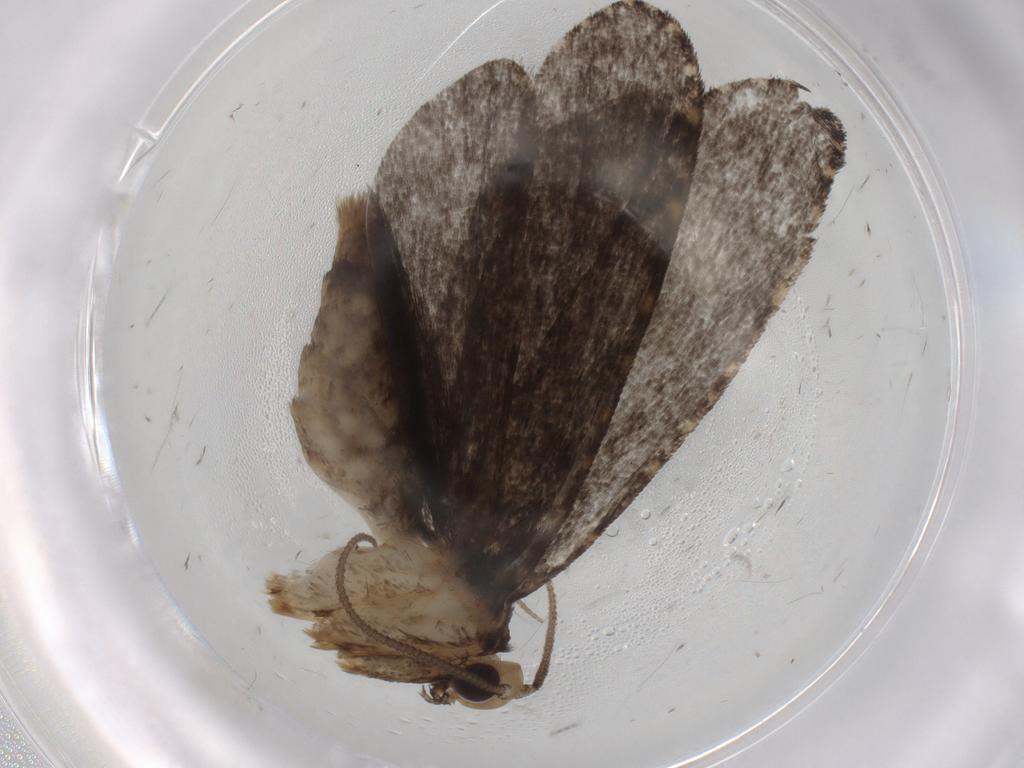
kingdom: Animalia
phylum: Arthropoda
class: Insecta
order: Lepidoptera
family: Tineidae
